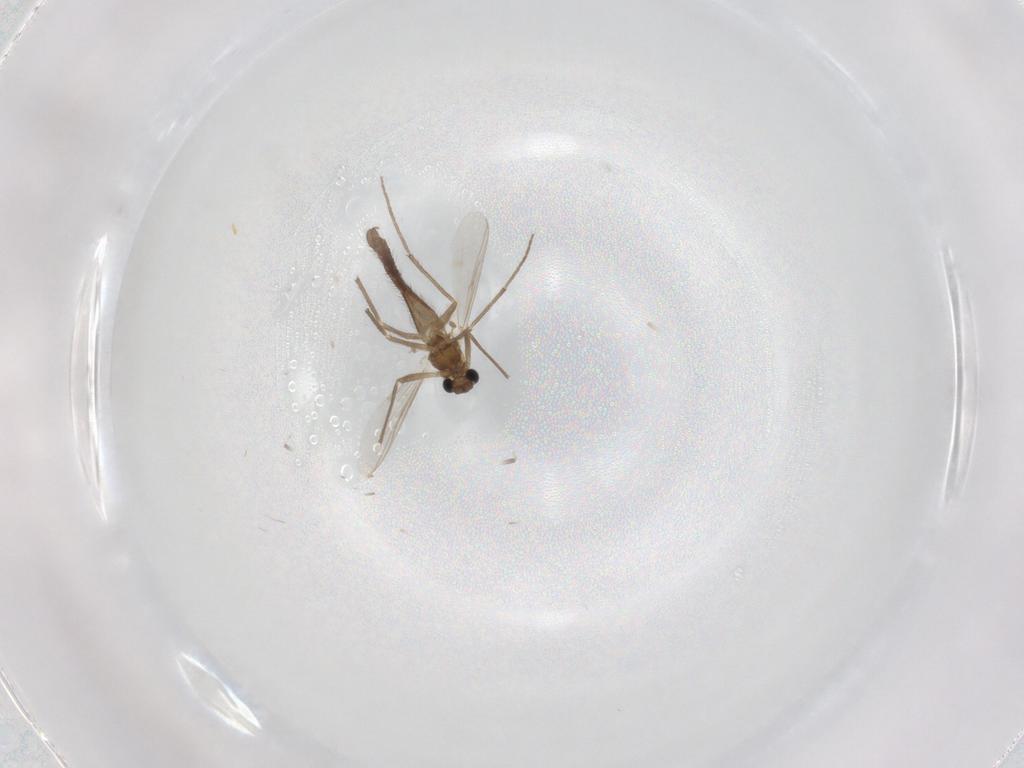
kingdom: Animalia
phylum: Arthropoda
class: Insecta
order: Diptera
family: Chironomidae
